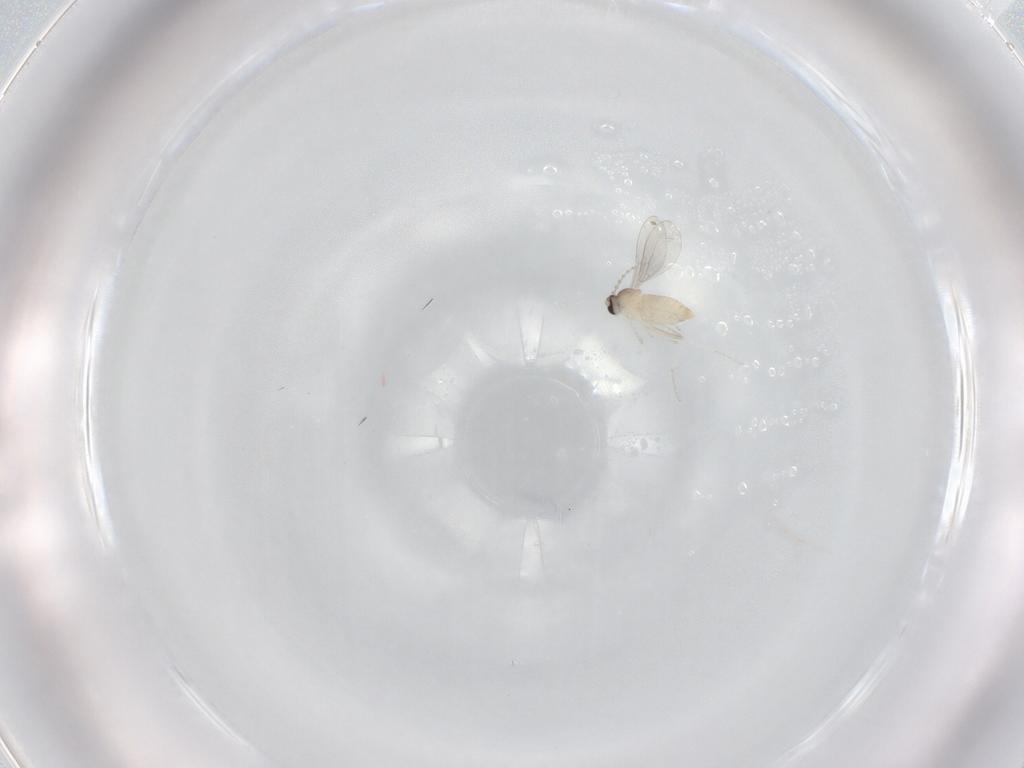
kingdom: Animalia
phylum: Arthropoda
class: Insecta
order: Diptera
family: Cecidomyiidae
